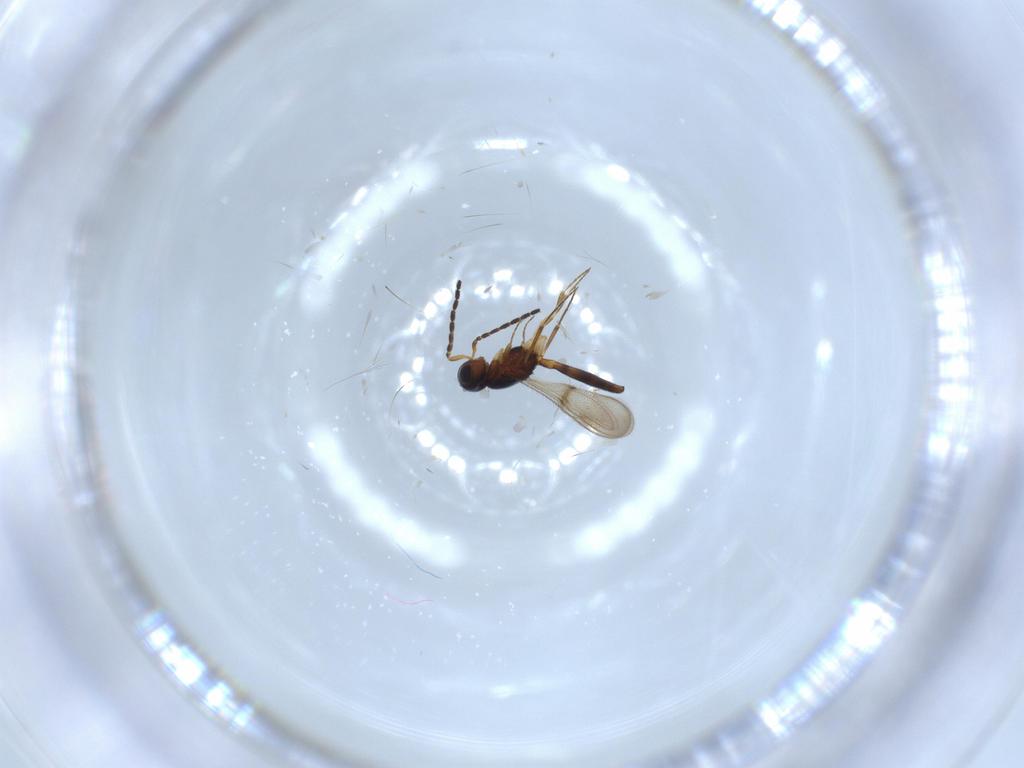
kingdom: Animalia
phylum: Arthropoda
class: Insecta
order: Hymenoptera
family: Scelionidae
